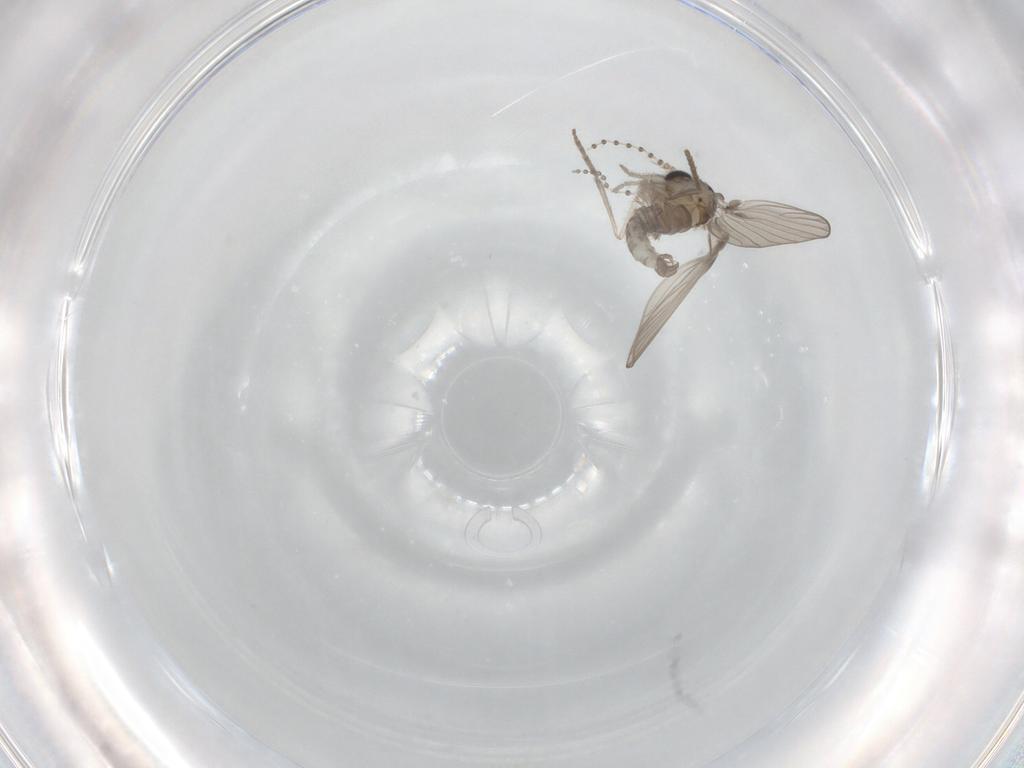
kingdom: Animalia
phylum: Arthropoda
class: Insecta
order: Diptera
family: Psychodidae
